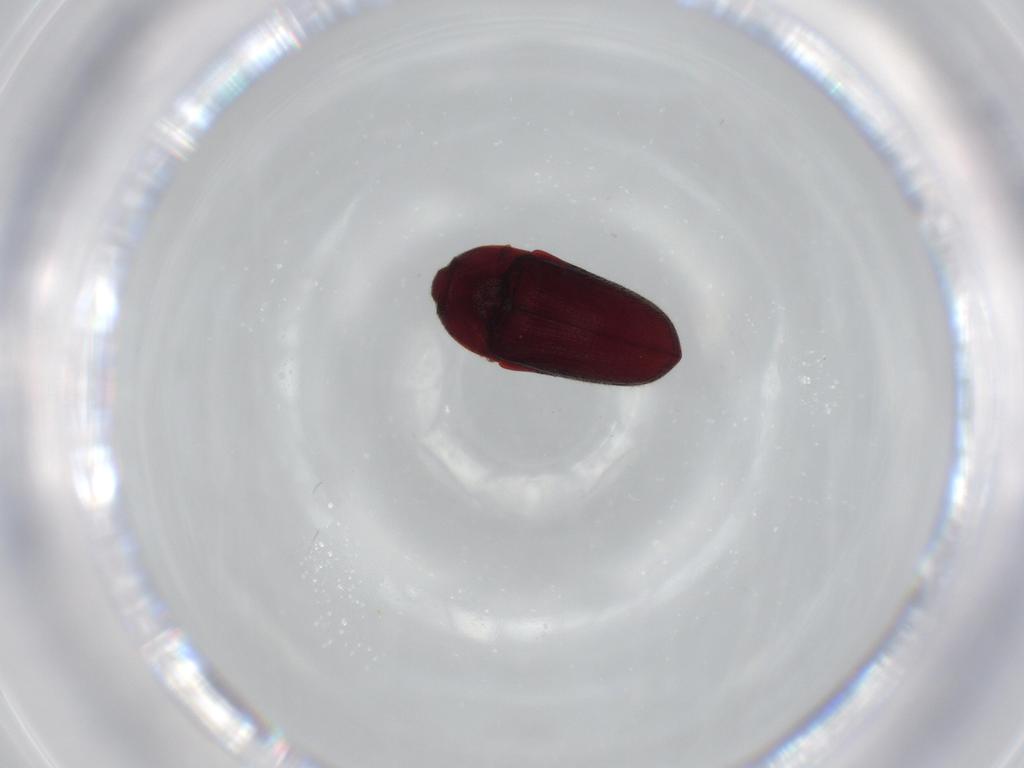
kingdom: Animalia
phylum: Arthropoda
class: Insecta
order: Coleoptera
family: Throscidae
